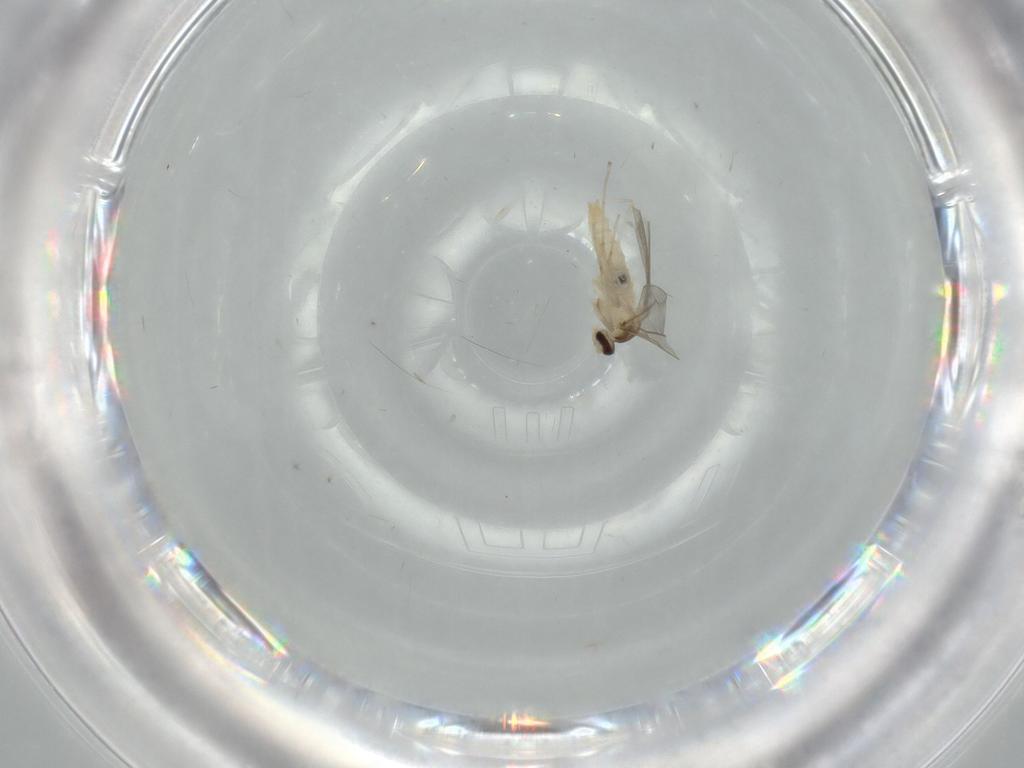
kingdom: Animalia
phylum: Arthropoda
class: Insecta
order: Diptera
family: Cecidomyiidae
